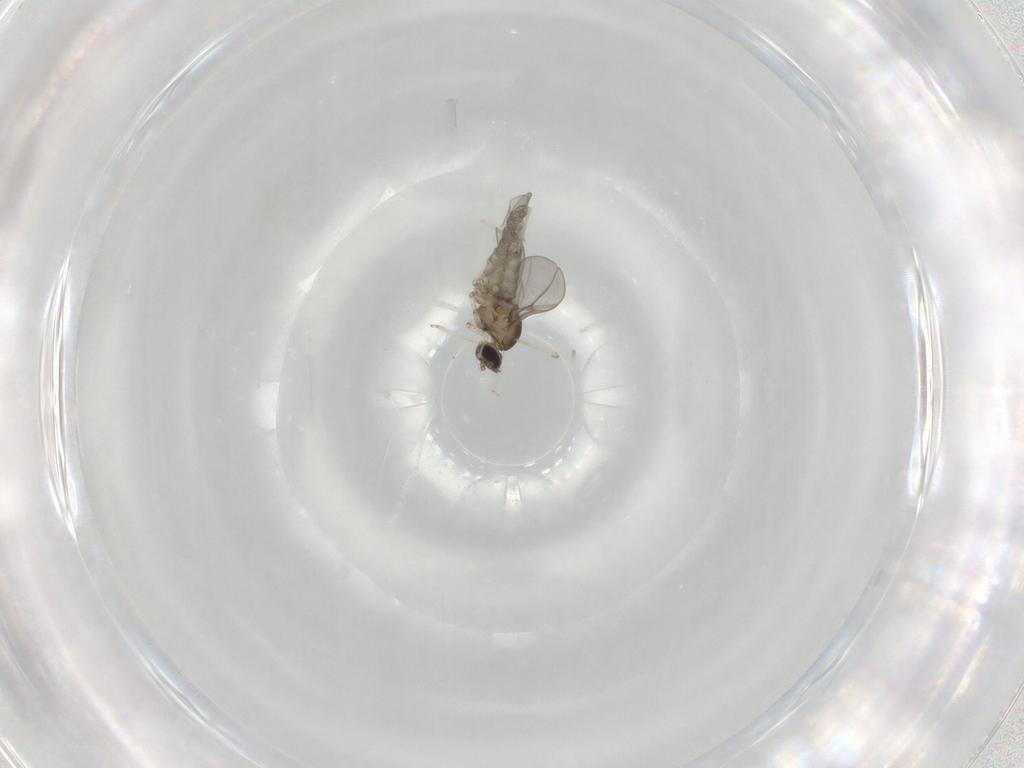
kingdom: Animalia
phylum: Arthropoda
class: Insecta
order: Diptera
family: Cecidomyiidae
